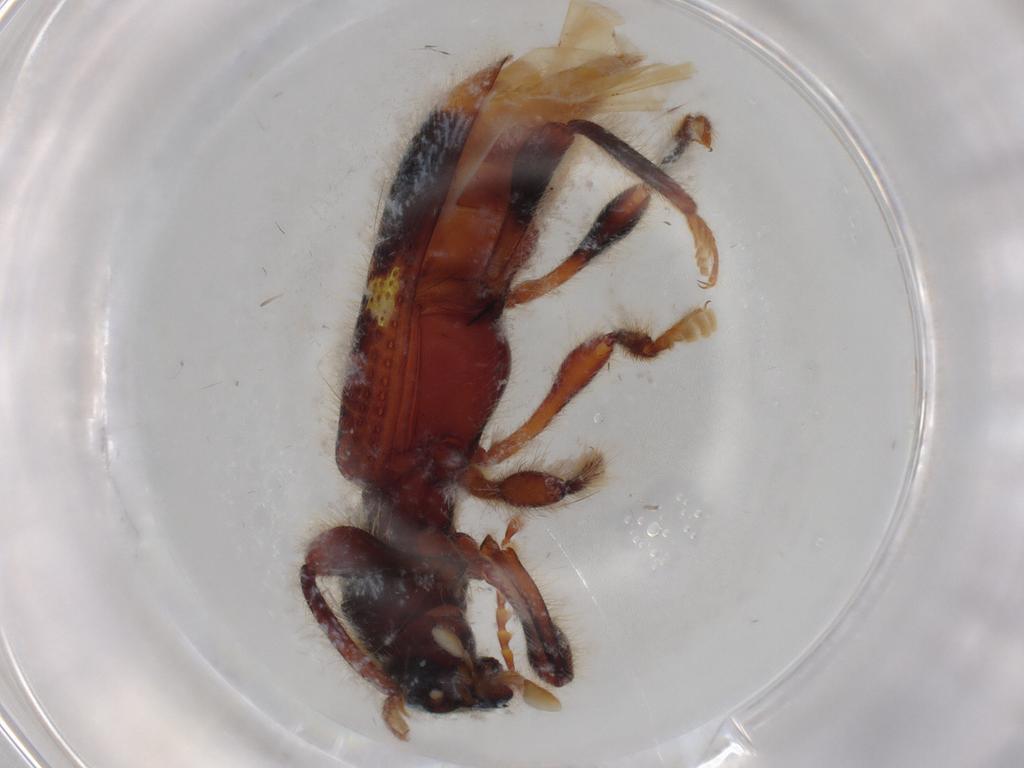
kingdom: Animalia
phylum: Arthropoda
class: Insecta
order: Coleoptera
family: Cleridae
